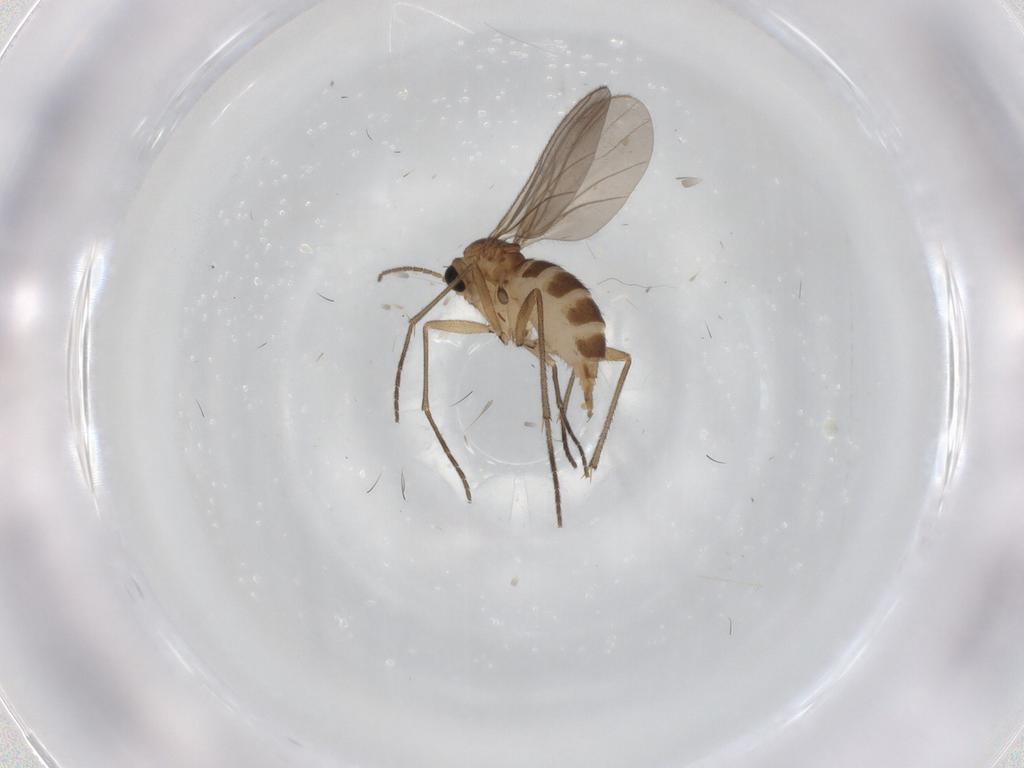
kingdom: Animalia
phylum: Arthropoda
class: Insecta
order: Diptera
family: Sciaridae
